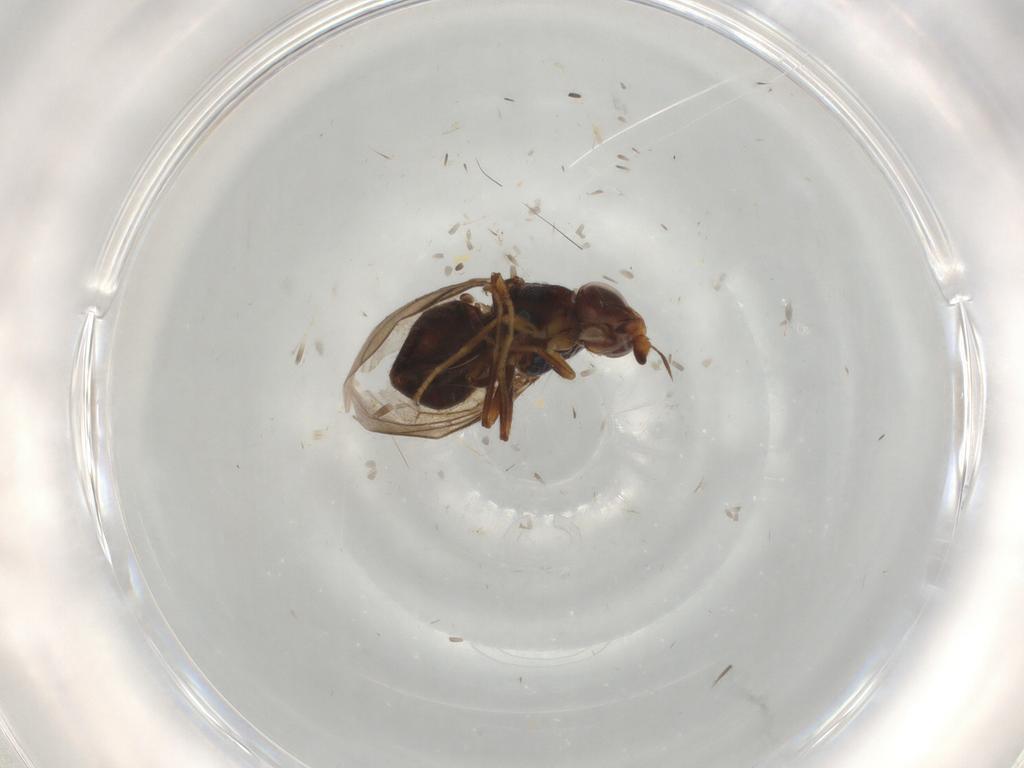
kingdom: Animalia
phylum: Arthropoda
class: Insecta
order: Diptera
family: Chloropidae
